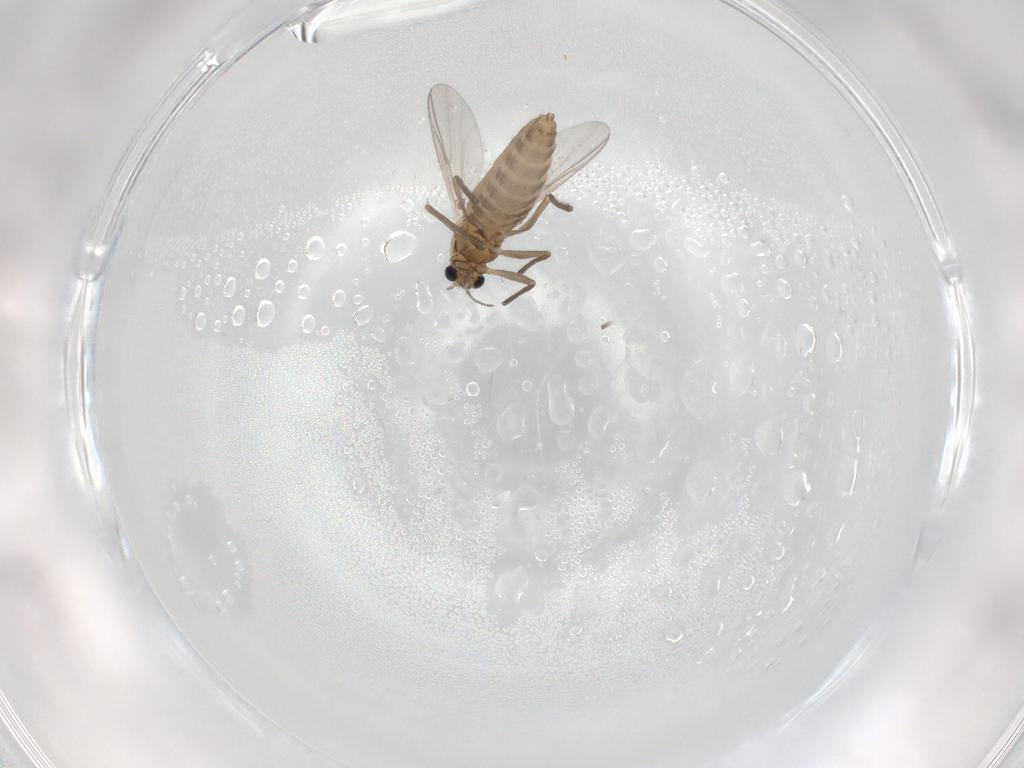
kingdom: Animalia
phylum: Arthropoda
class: Insecta
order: Diptera
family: Chironomidae
